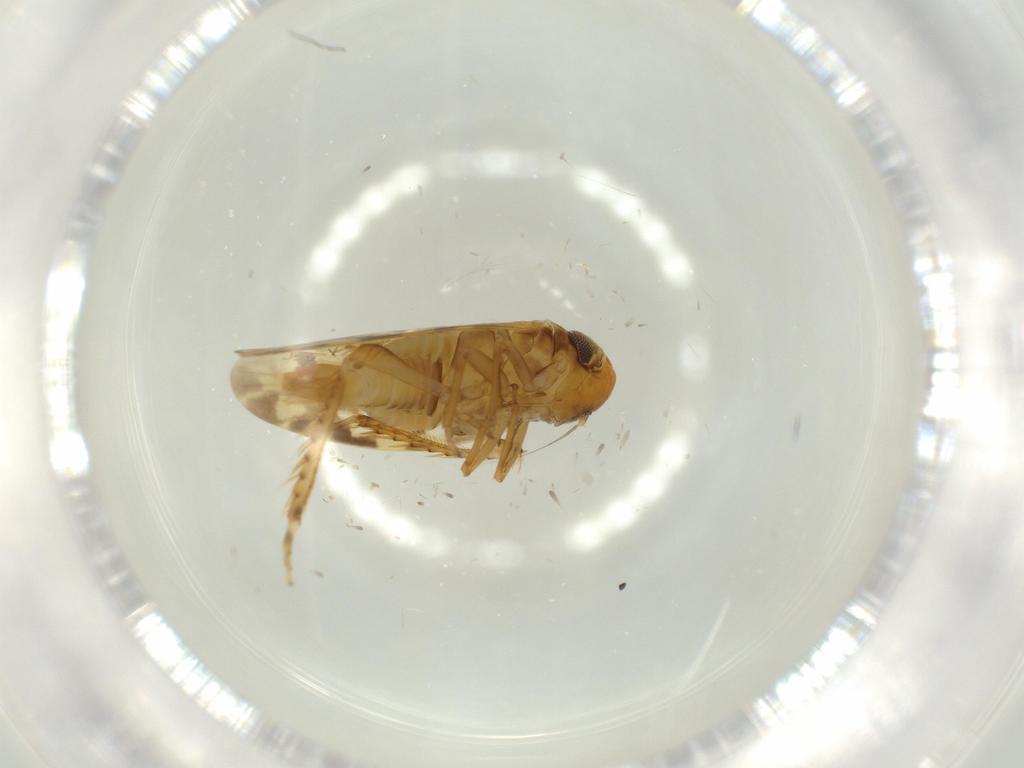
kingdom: Animalia
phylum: Arthropoda
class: Insecta
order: Hemiptera
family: Cicadellidae
